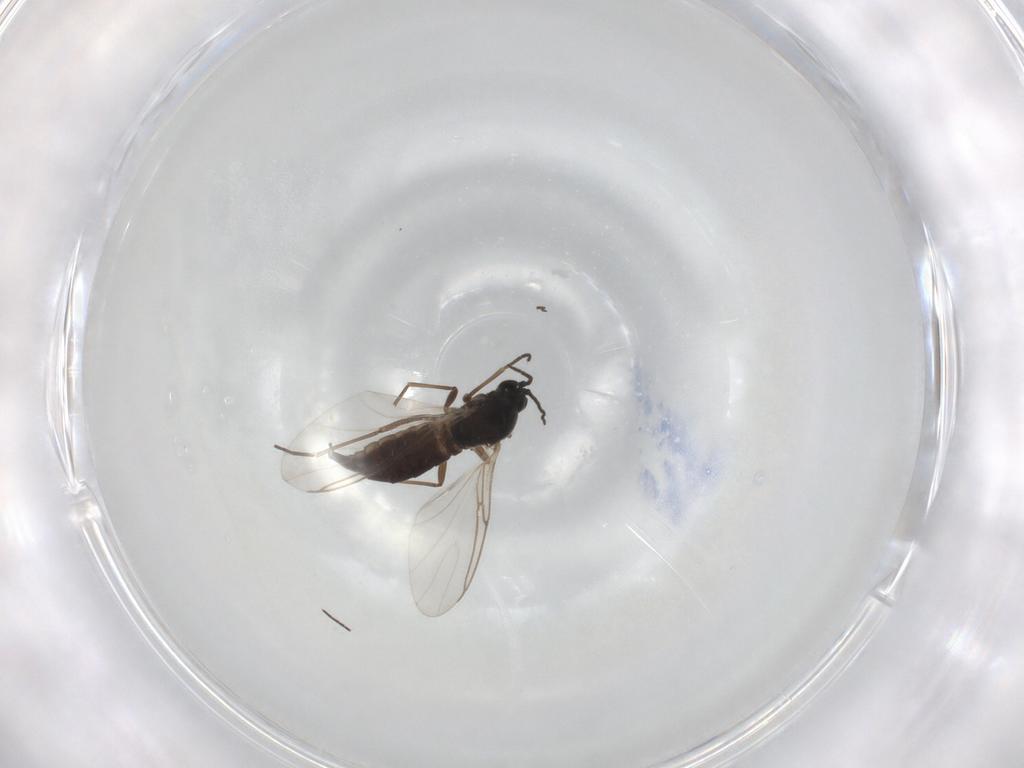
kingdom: Animalia
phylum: Arthropoda
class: Insecta
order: Diptera
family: Sciaridae
